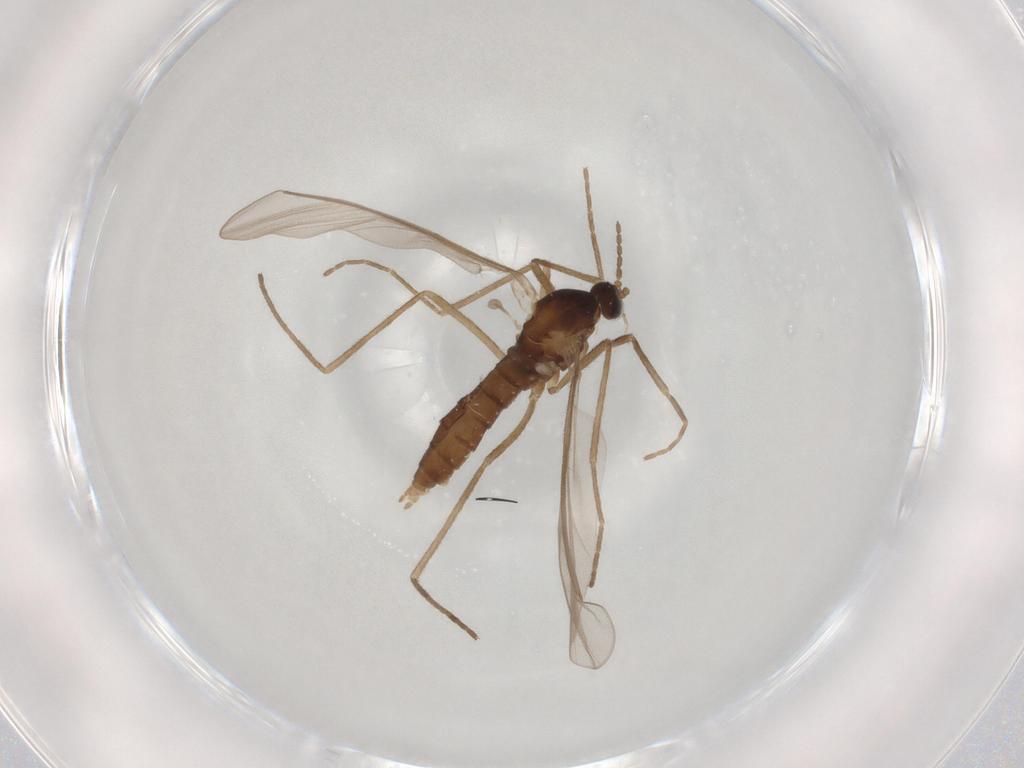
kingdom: Animalia
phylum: Arthropoda
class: Insecta
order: Diptera
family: Cecidomyiidae
